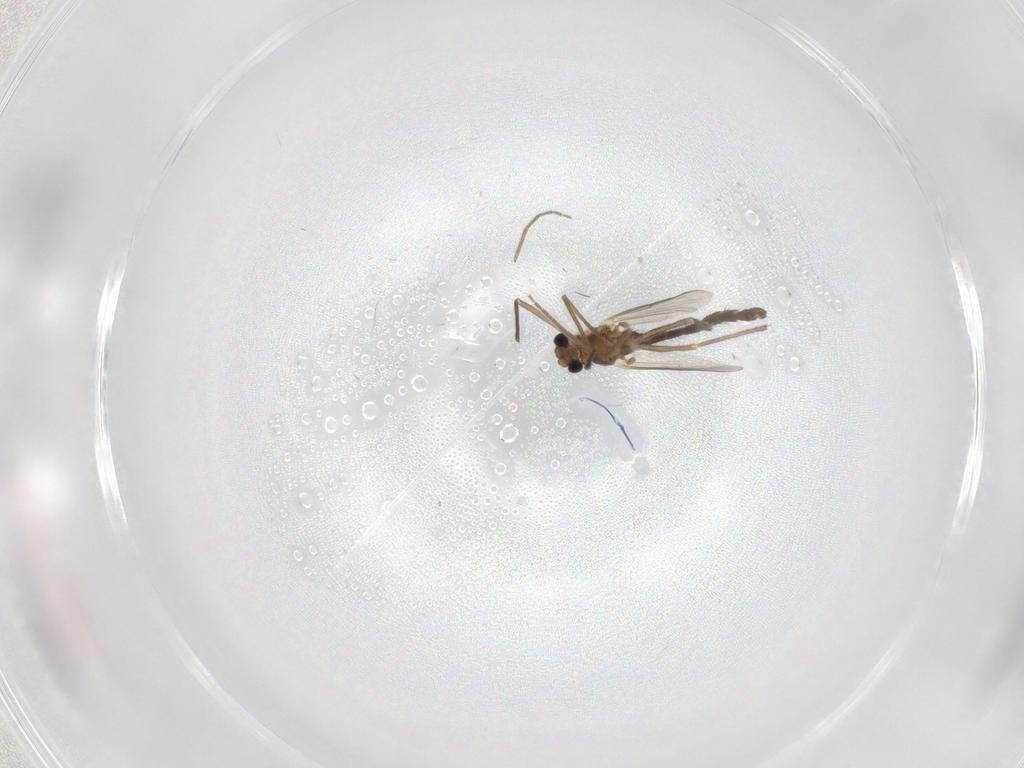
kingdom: Animalia
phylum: Arthropoda
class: Insecta
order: Diptera
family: Chironomidae
